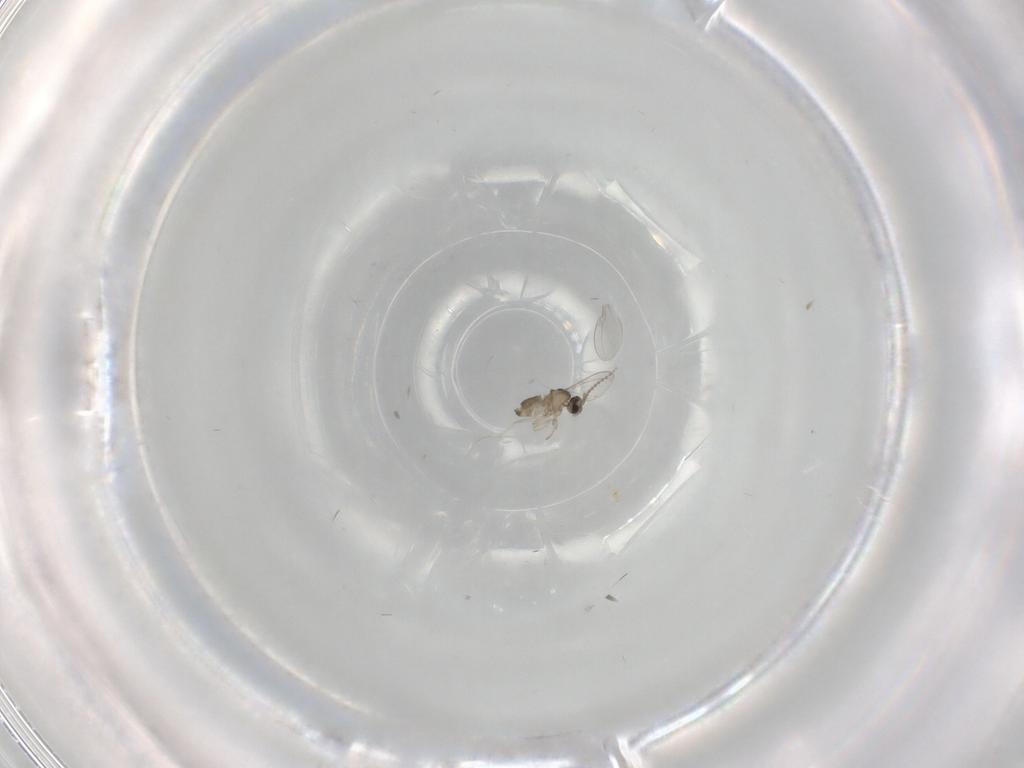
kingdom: Animalia
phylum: Arthropoda
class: Insecta
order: Diptera
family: Cecidomyiidae
